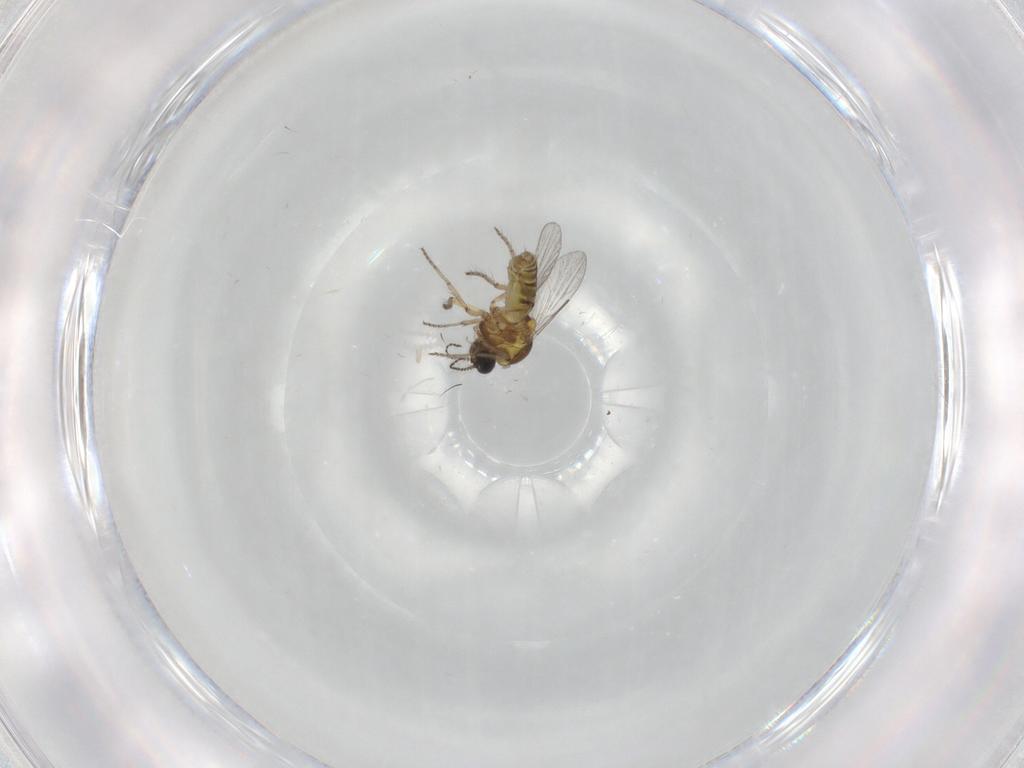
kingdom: Animalia
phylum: Arthropoda
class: Insecta
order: Diptera
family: Ceratopogonidae
